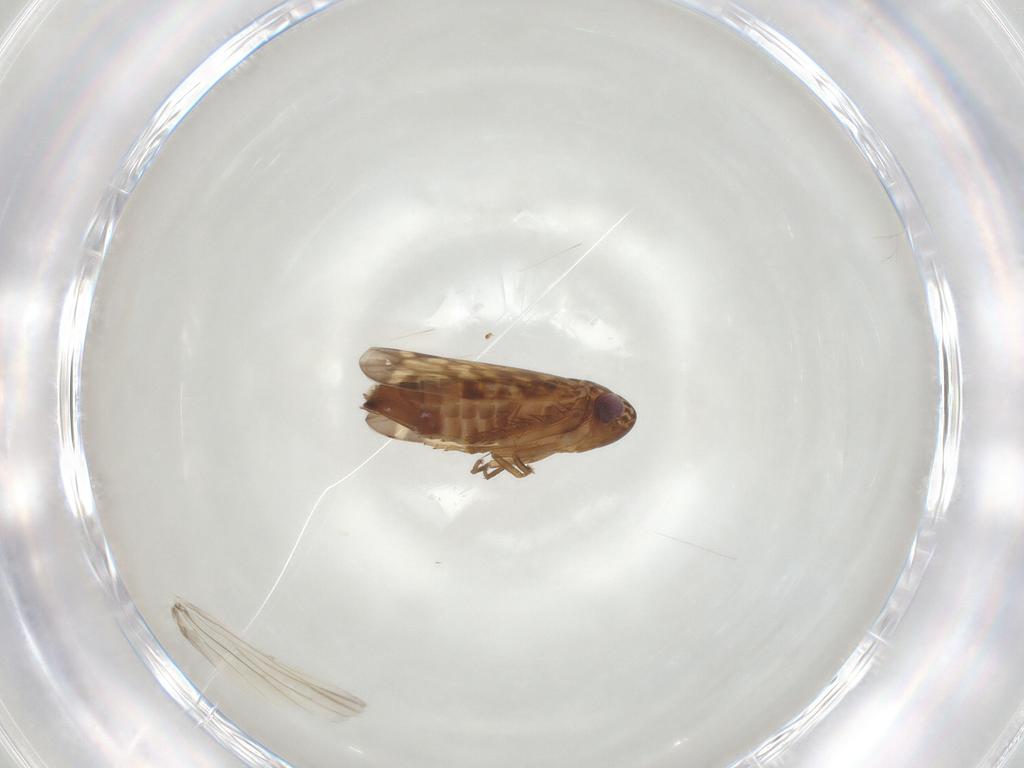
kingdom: Animalia
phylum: Arthropoda
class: Insecta
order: Hemiptera
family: Cicadellidae
